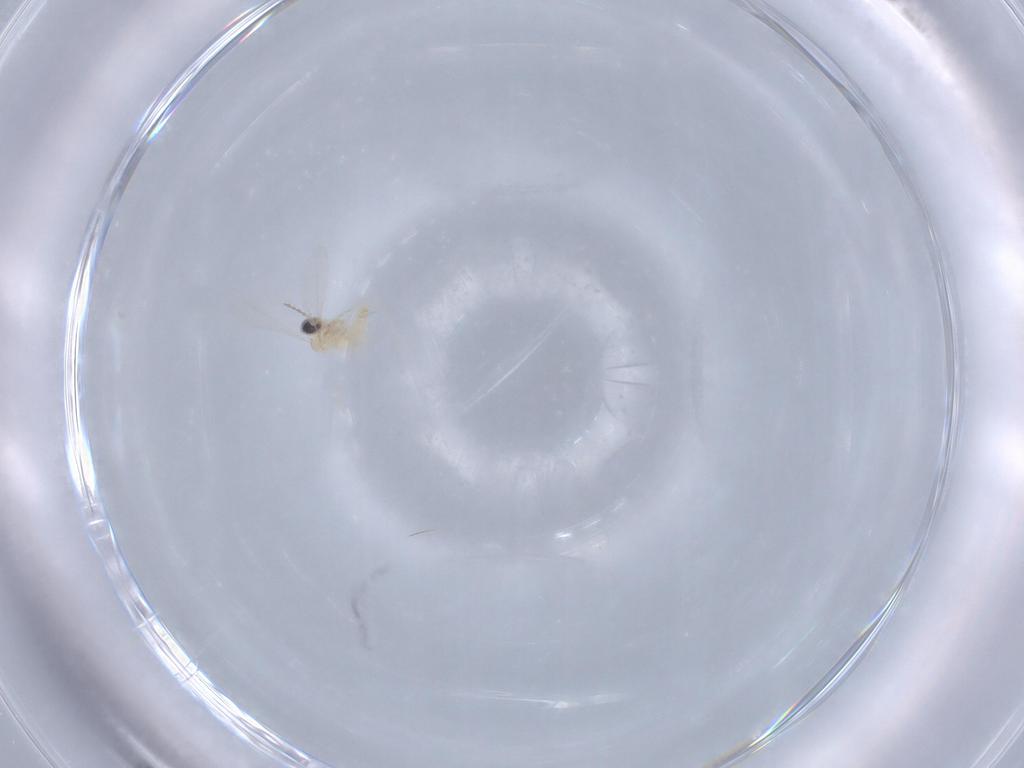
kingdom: Animalia
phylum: Arthropoda
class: Insecta
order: Diptera
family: Cecidomyiidae
